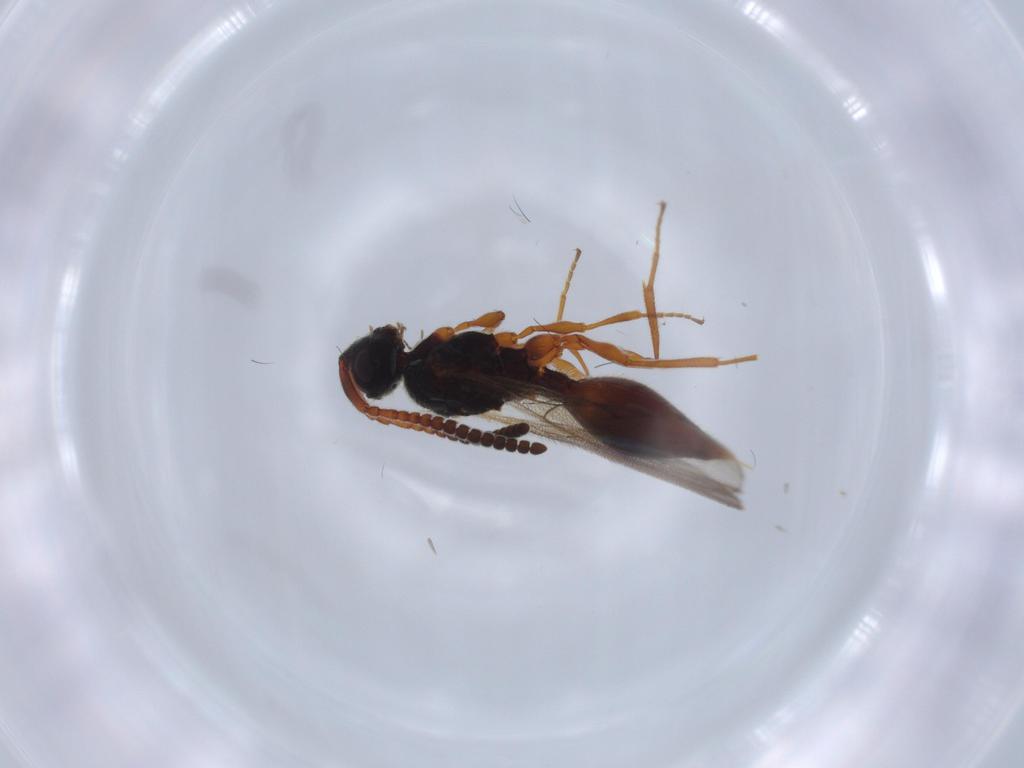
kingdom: Animalia
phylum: Arthropoda
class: Insecta
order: Hymenoptera
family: Diapriidae
